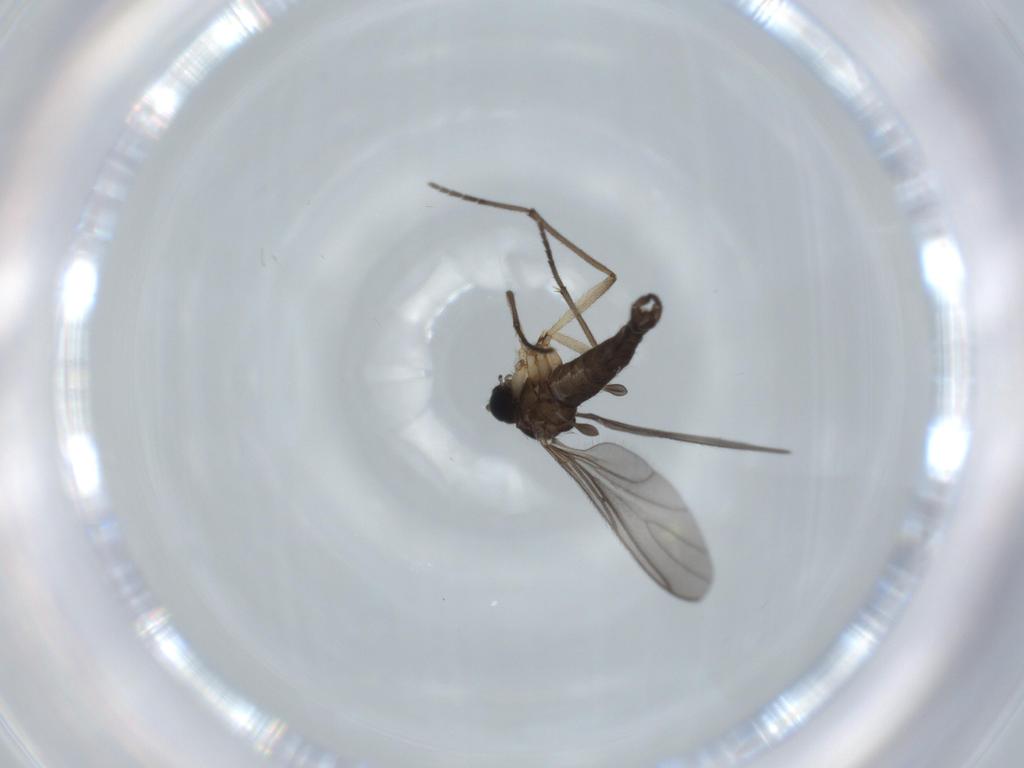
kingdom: Animalia
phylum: Arthropoda
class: Insecta
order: Diptera
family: Sciaridae
